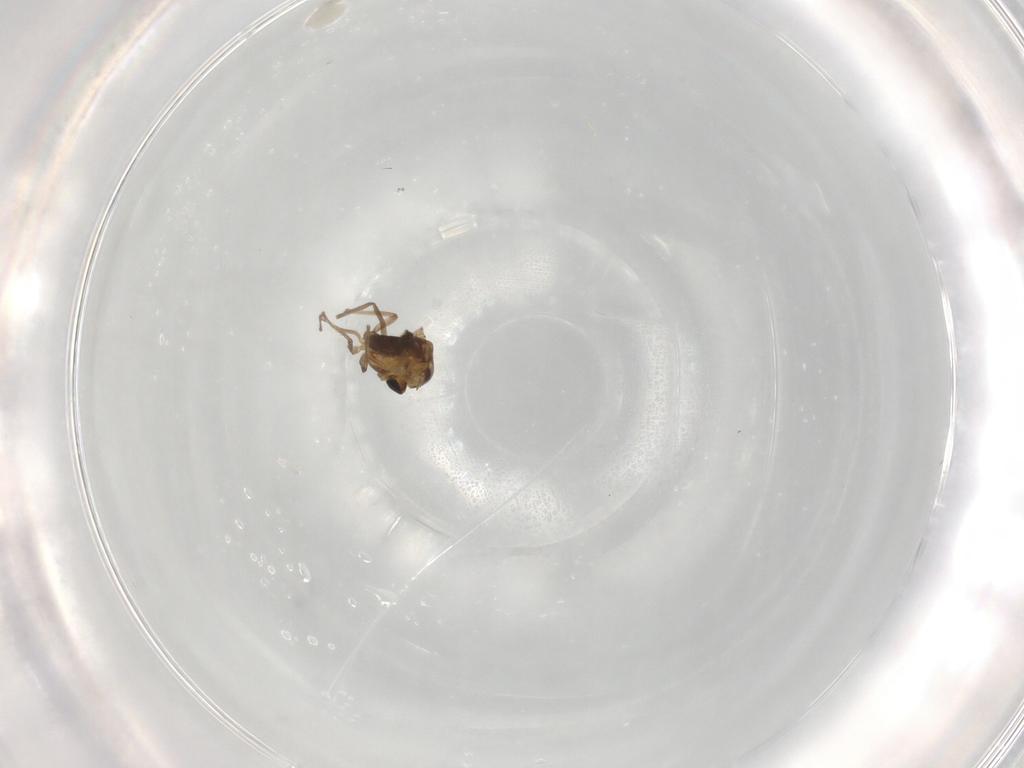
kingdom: Animalia
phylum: Arthropoda
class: Insecta
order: Diptera
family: Chironomidae
